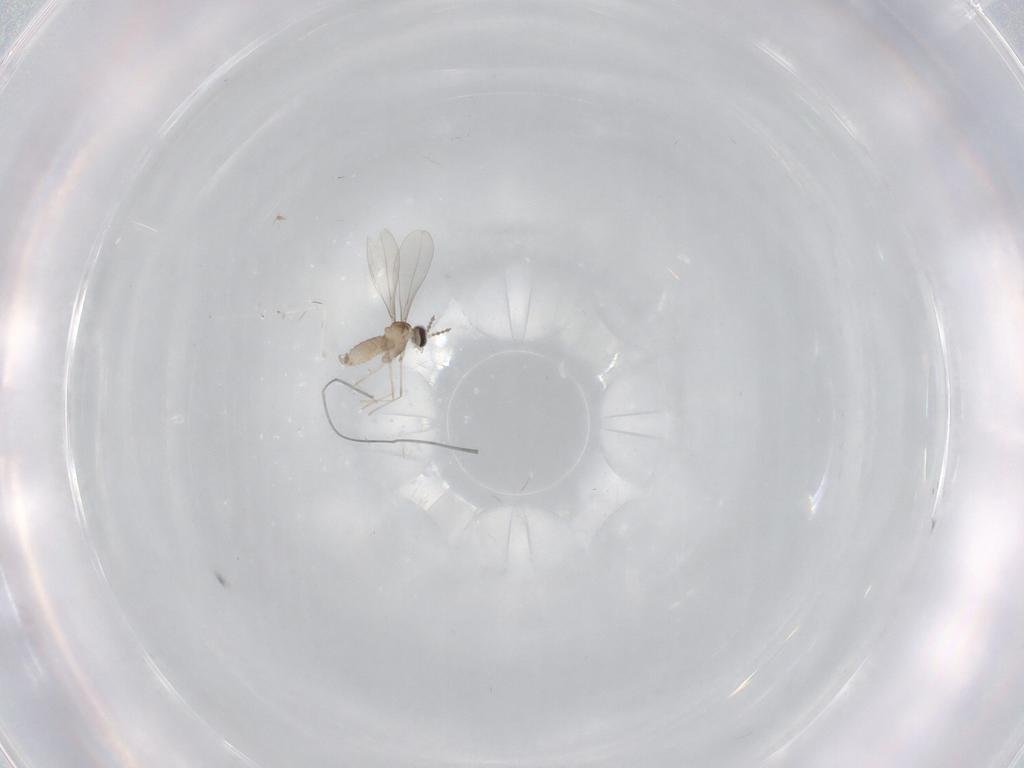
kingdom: Animalia
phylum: Arthropoda
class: Insecta
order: Diptera
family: Cecidomyiidae
